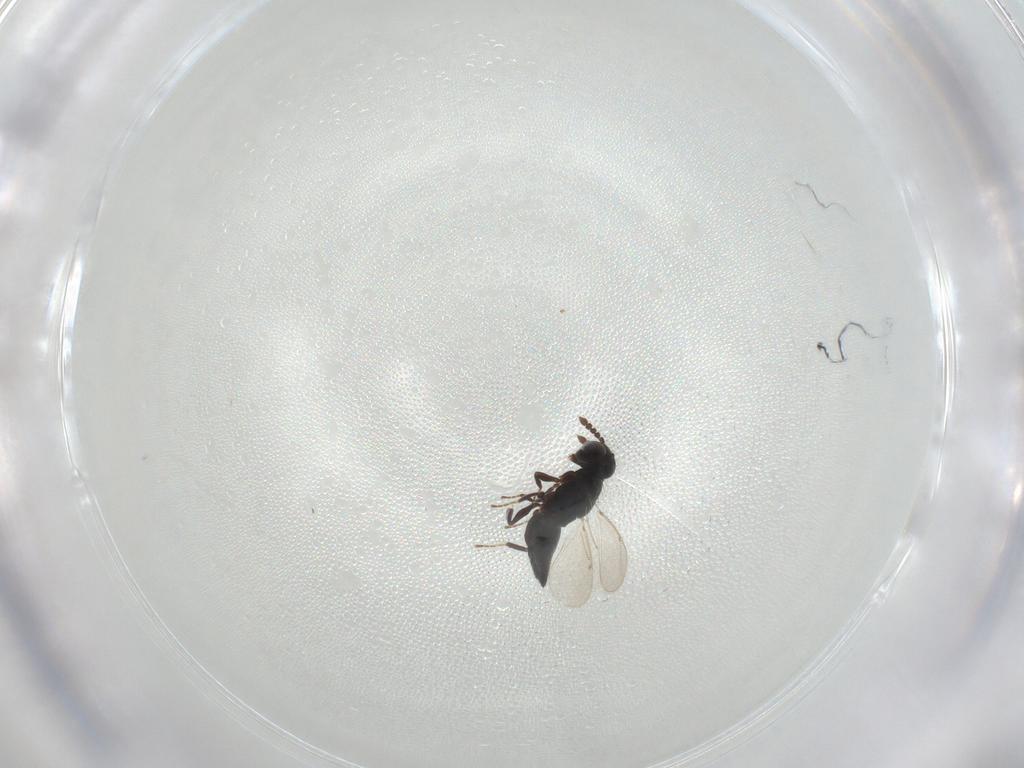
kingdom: Animalia
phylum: Arthropoda
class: Insecta
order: Hymenoptera
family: Eulophidae
